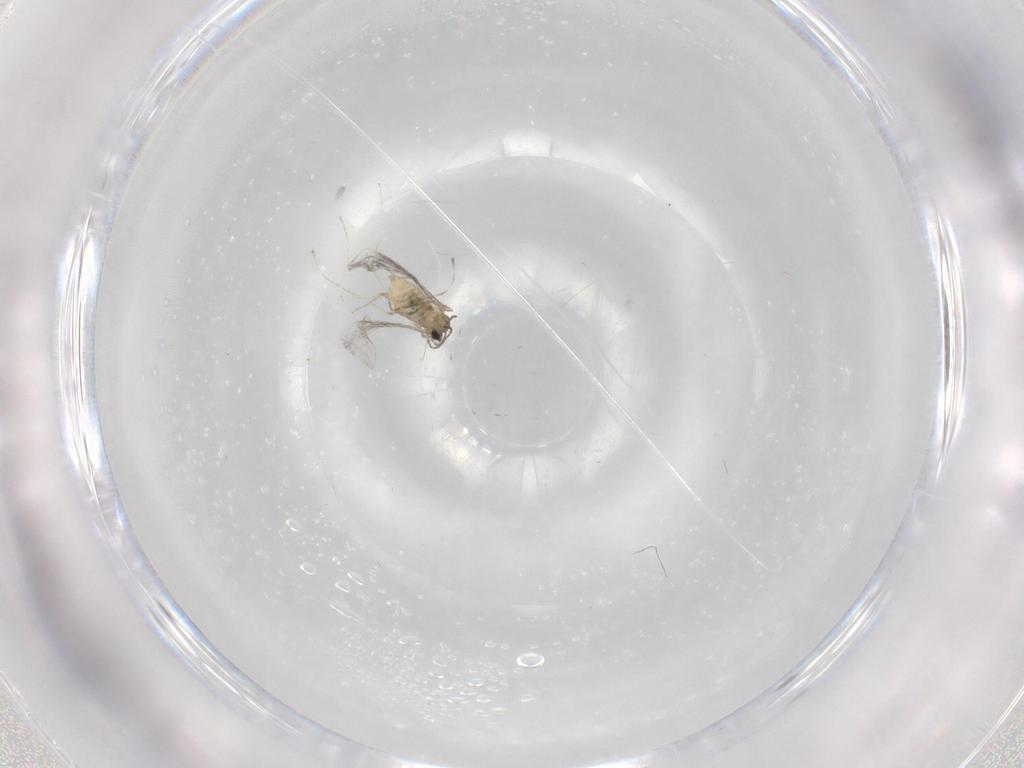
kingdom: Animalia
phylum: Arthropoda
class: Insecta
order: Diptera
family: Cecidomyiidae
